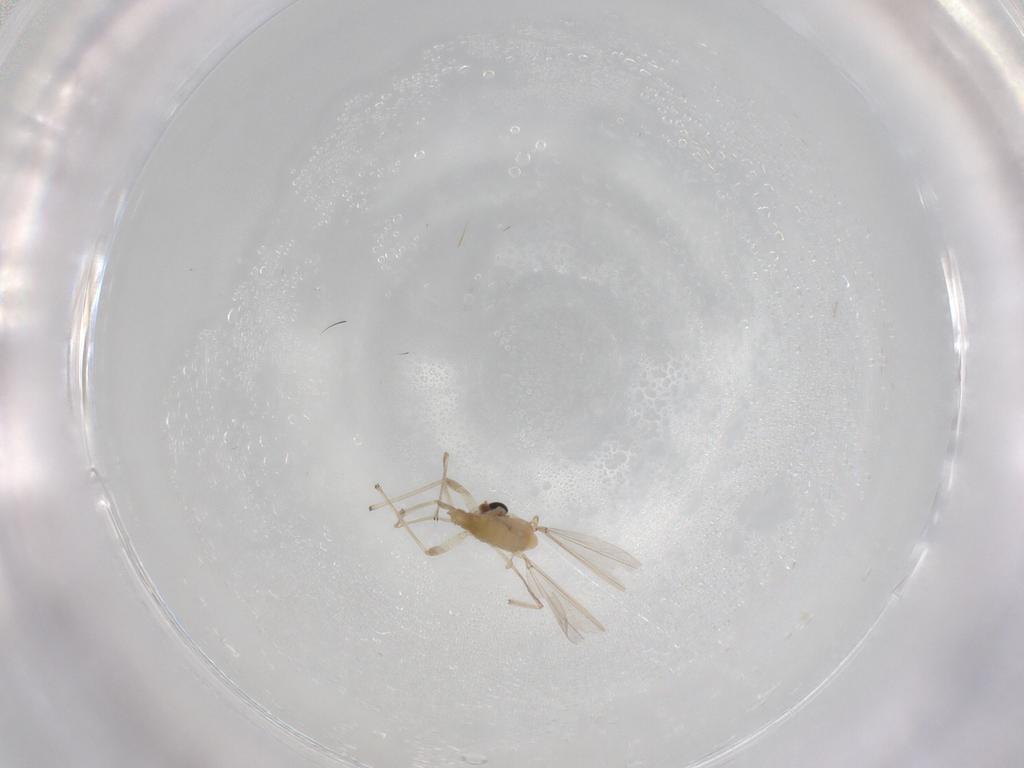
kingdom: Animalia
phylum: Arthropoda
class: Insecta
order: Diptera
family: Chironomidae
